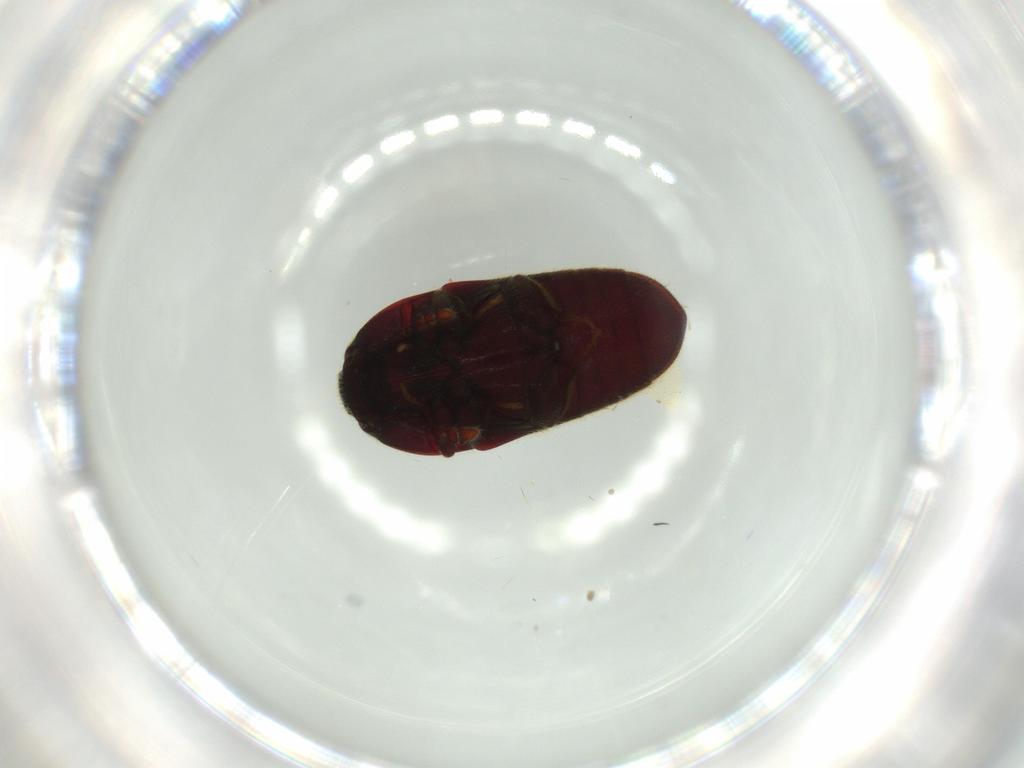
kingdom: Animalia
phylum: Arthropoda
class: Insecta
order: Coleoptera
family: Throscidae
